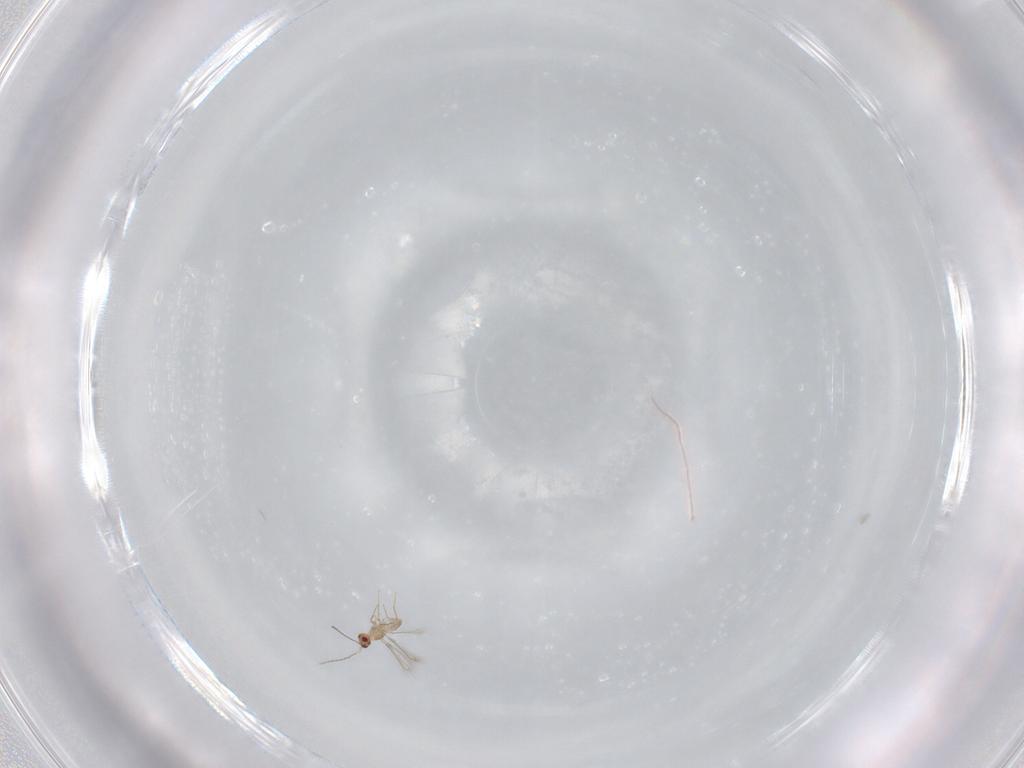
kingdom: Animalia
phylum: Arthropoda
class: Insecta
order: Hymenoptera
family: Mymaridae
